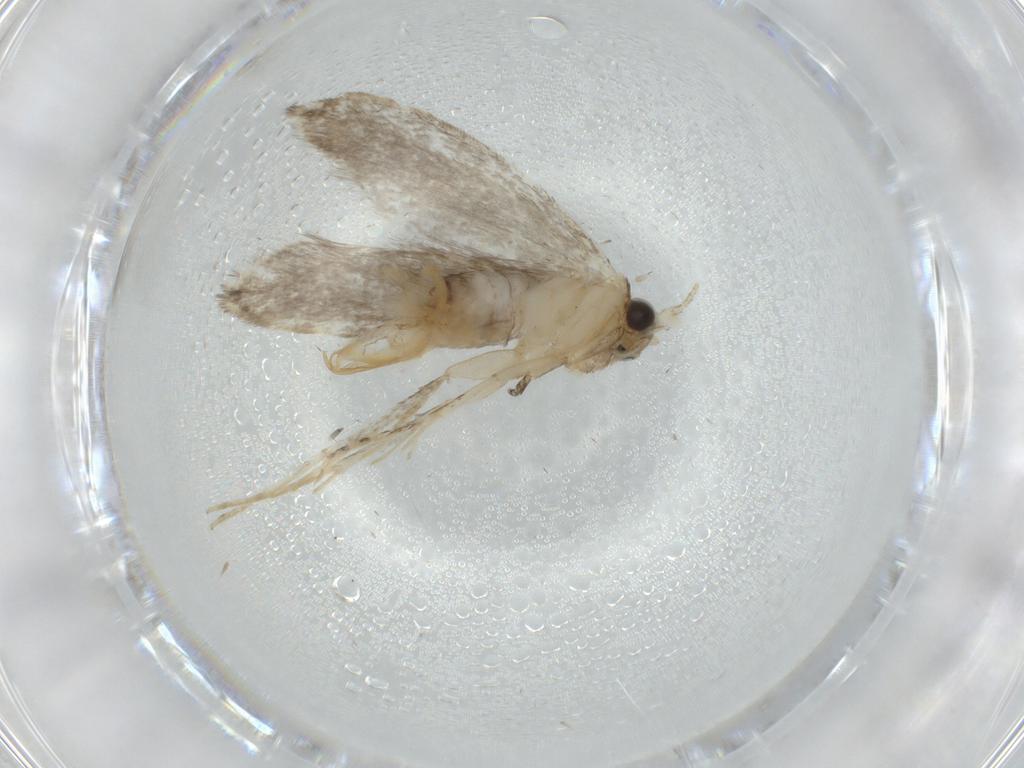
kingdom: Animalia
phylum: Arthropoda
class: Insecta
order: Lepidoptera
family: Tineidae
